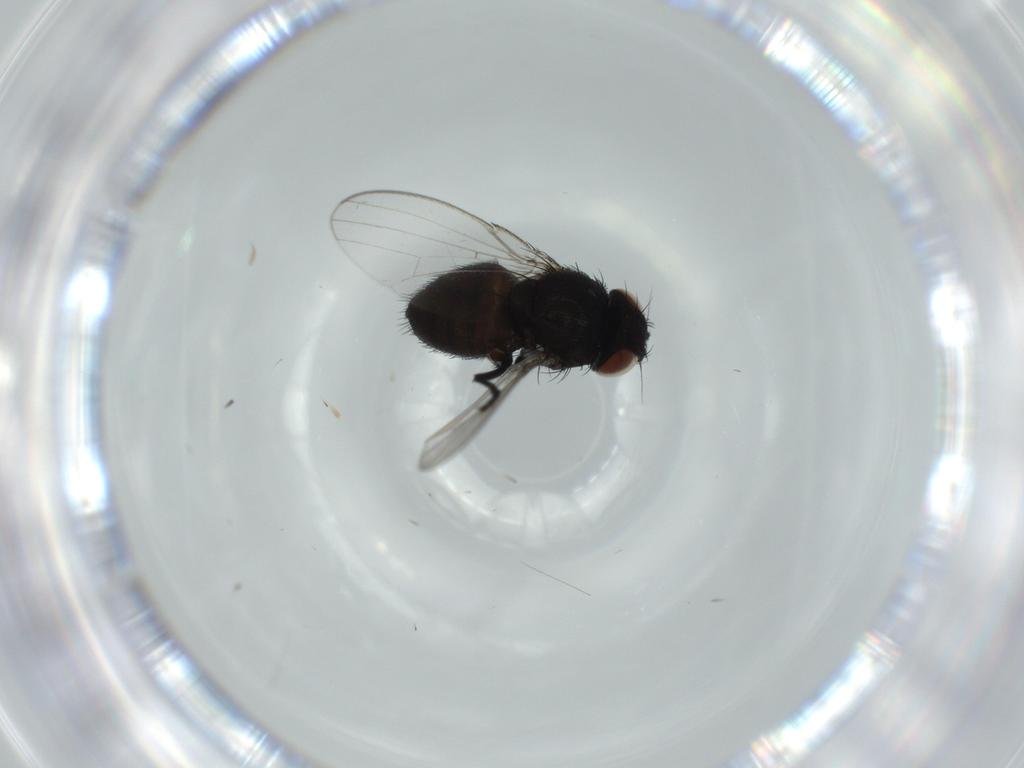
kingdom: Animalia
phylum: Arthropoda
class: Insecta
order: Diptera
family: Milichiidae
